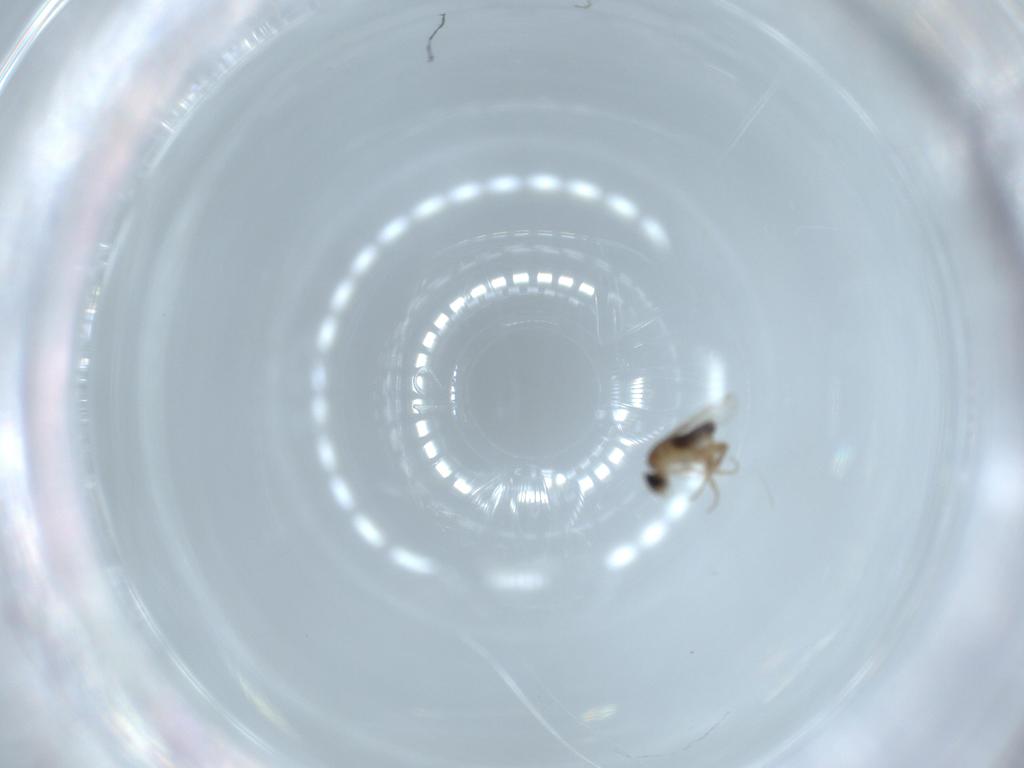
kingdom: Animalia
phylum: Arthropoda
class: Insecta
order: Diptera
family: Phoridae
